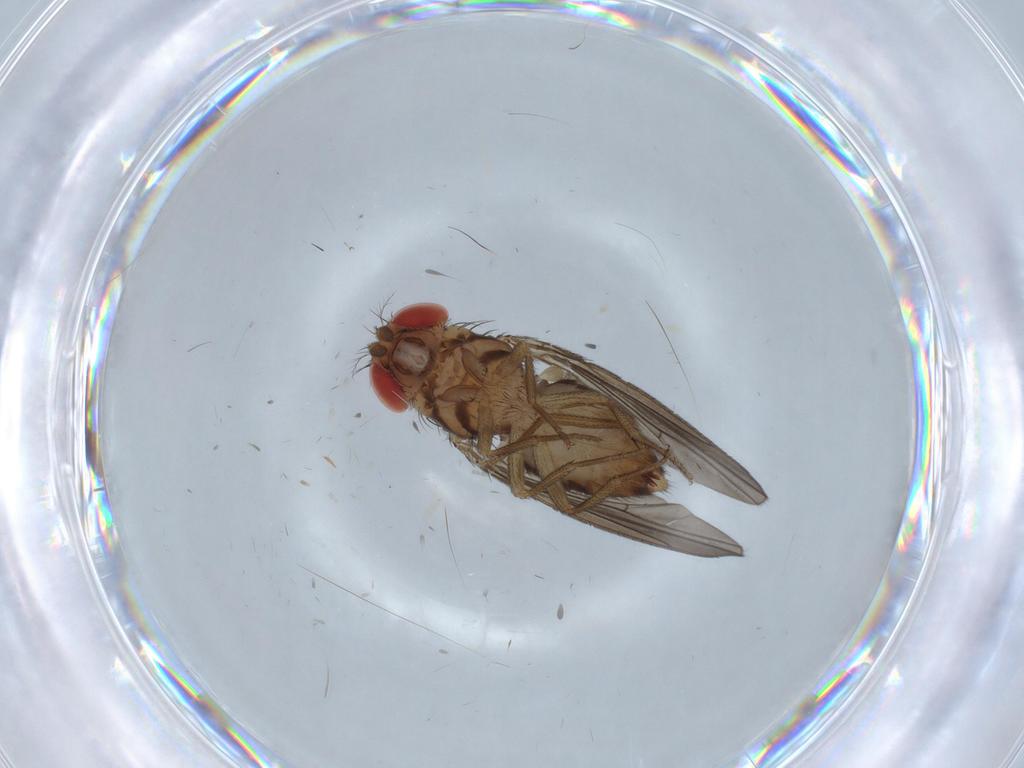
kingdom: Animalia
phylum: Arthropoda
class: Insecta
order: Diptera
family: Drosophilidae
